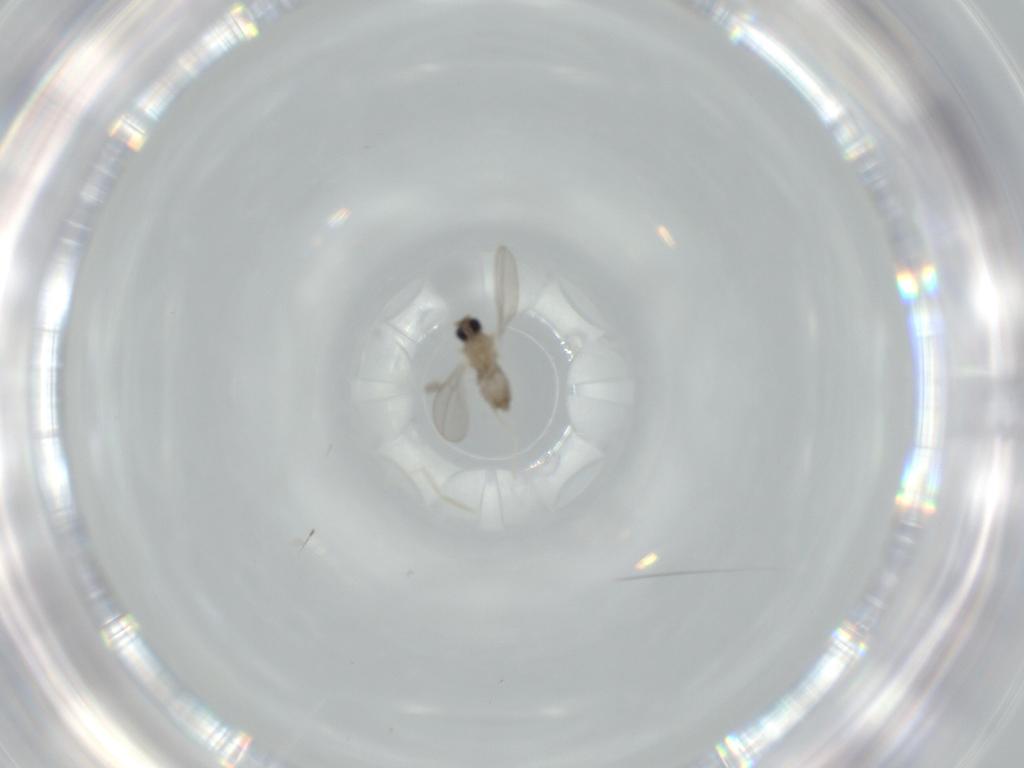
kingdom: Animalia
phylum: Arthropoda
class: Insecta
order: Diptera
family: Cecidomyiidae
